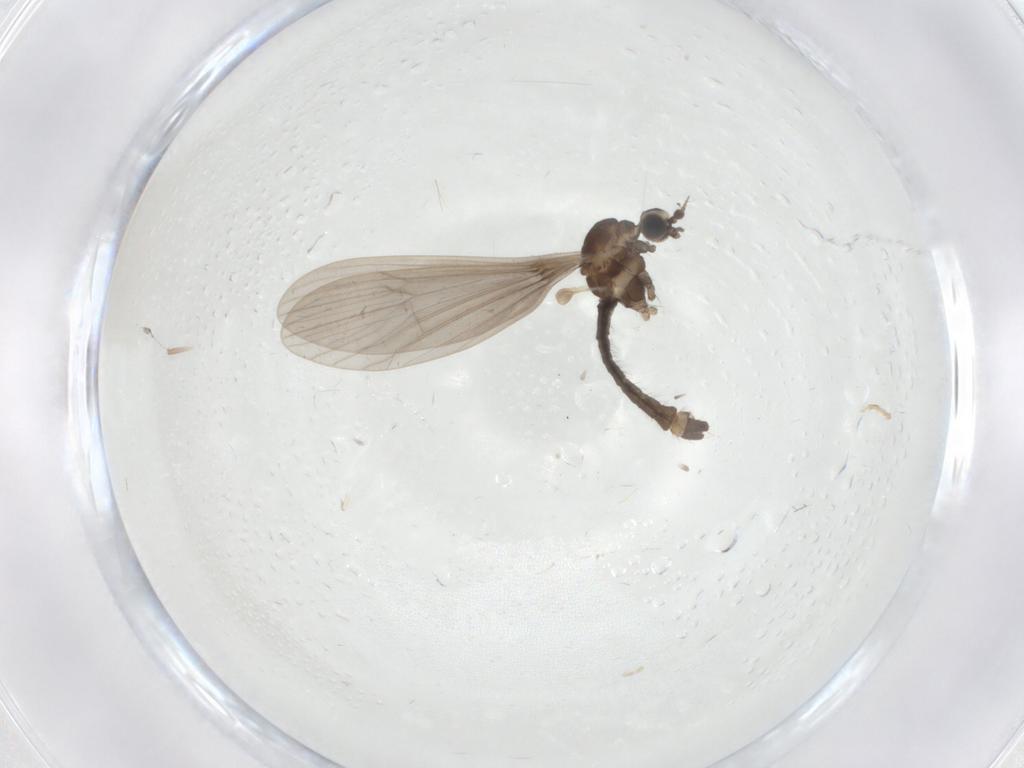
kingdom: Animalia
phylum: Arthropoda
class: Insecta
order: Diptera
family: Limoniidae
